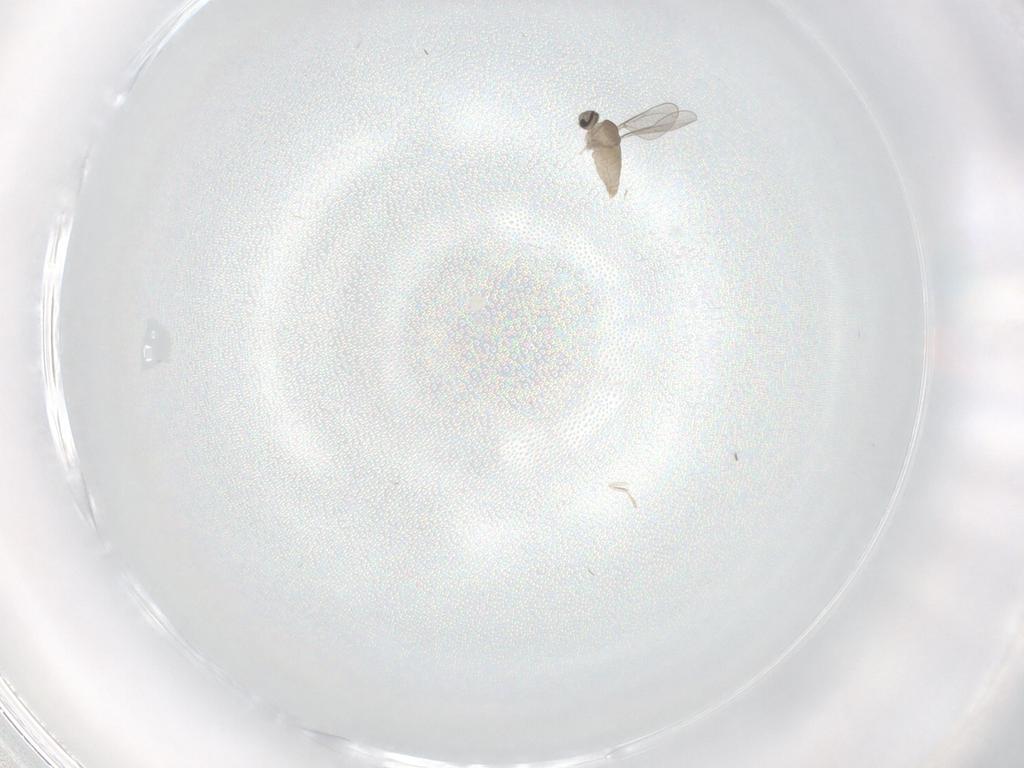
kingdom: Animalia
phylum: Arthropoda
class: Insecta
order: Diptera
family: Cecidomyiidae
